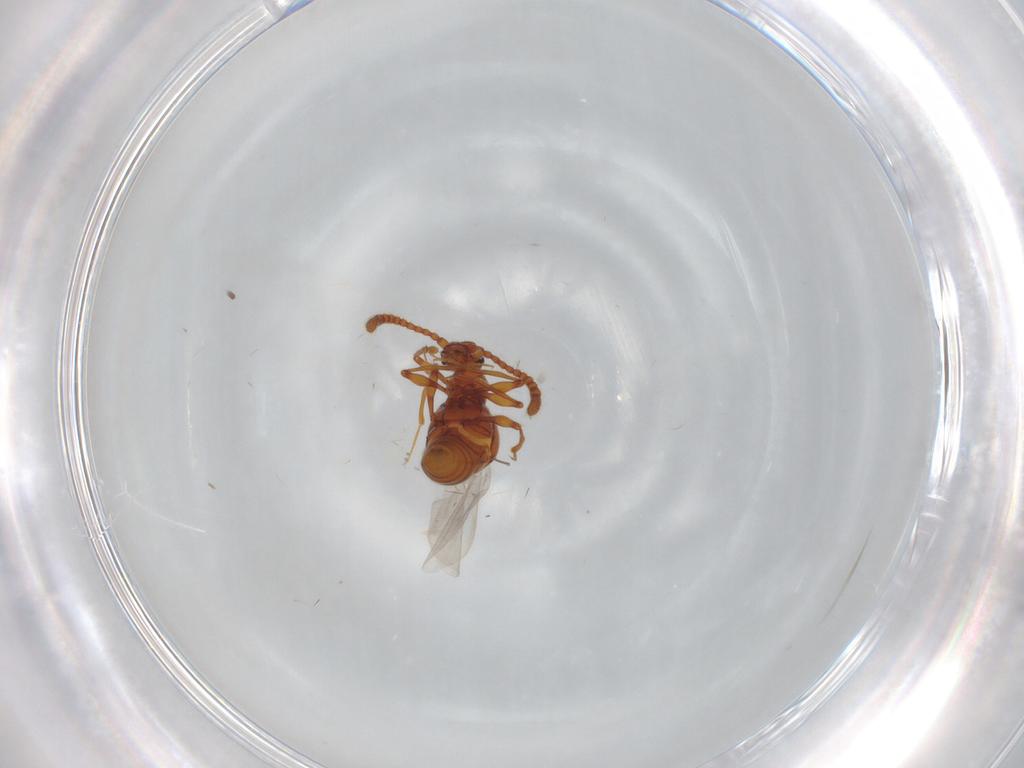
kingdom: Animalia
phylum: Arthropoda
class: Insecta
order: Coleoptera
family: Staphylinidae
